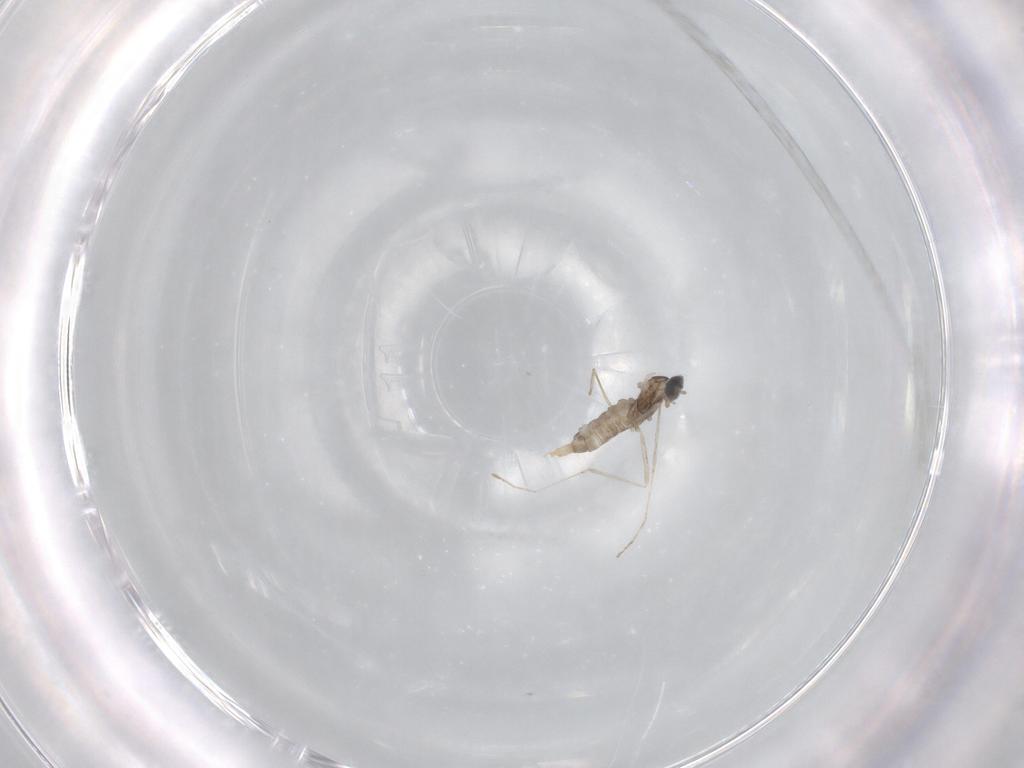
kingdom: Animalia
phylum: Arthropoda
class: Insecta
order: Diptera
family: Cecidomyiidae
